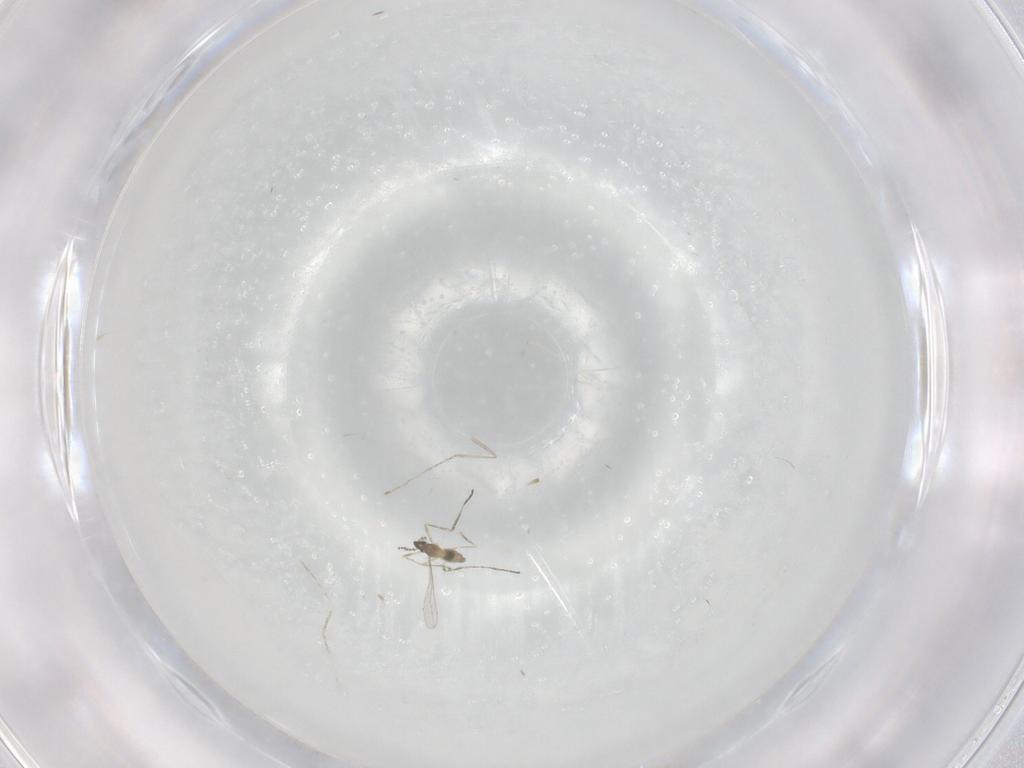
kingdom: Animalia
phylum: Arthropoda
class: Insecta
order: Diptera
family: Cecidomyiidae
